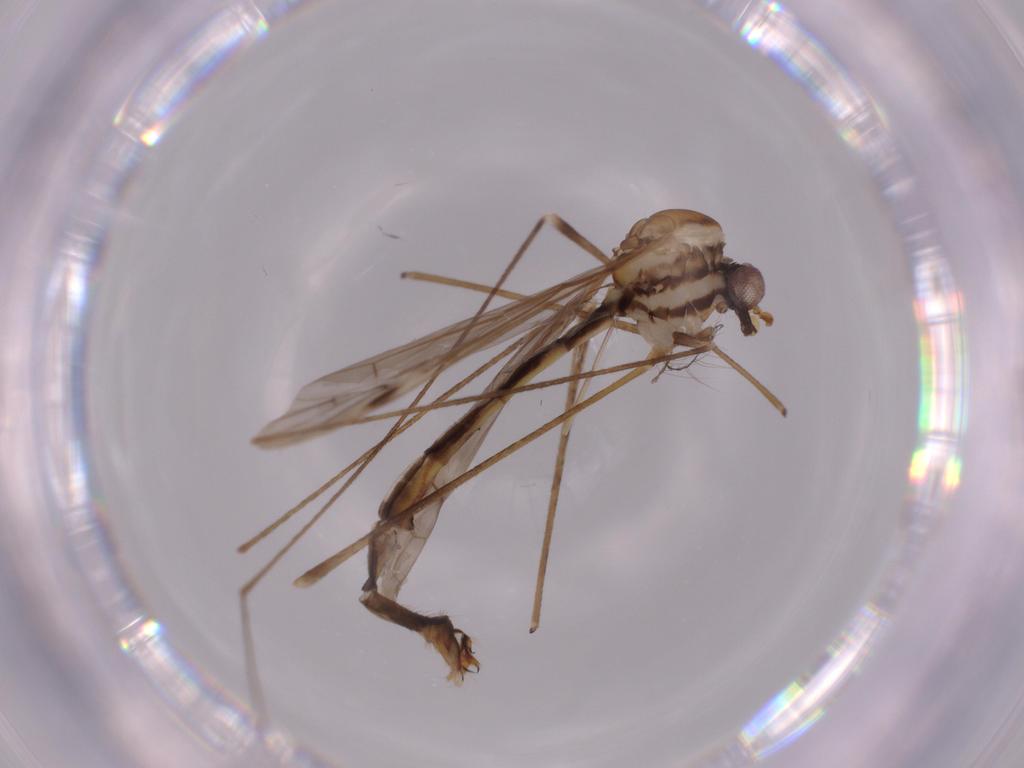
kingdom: Animalia
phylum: Arthropoda
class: Insecta
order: Diptera
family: Limoniidae
